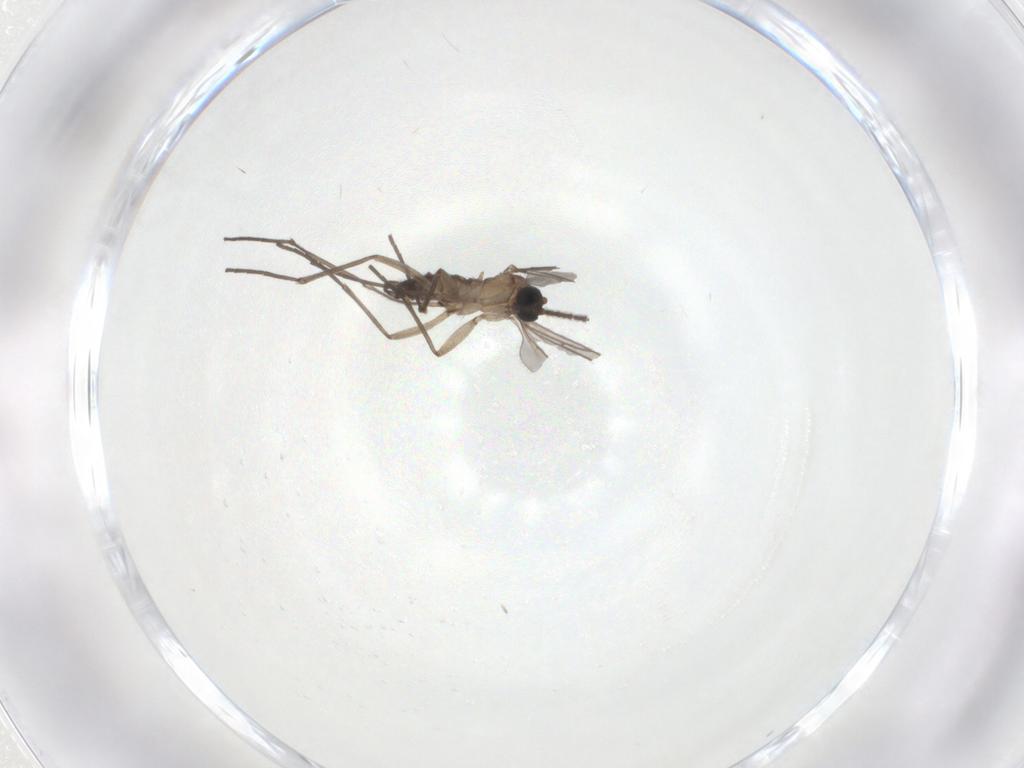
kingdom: Animalia
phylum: Arthropoda
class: Insecta
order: Diptera
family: Sciaridae
